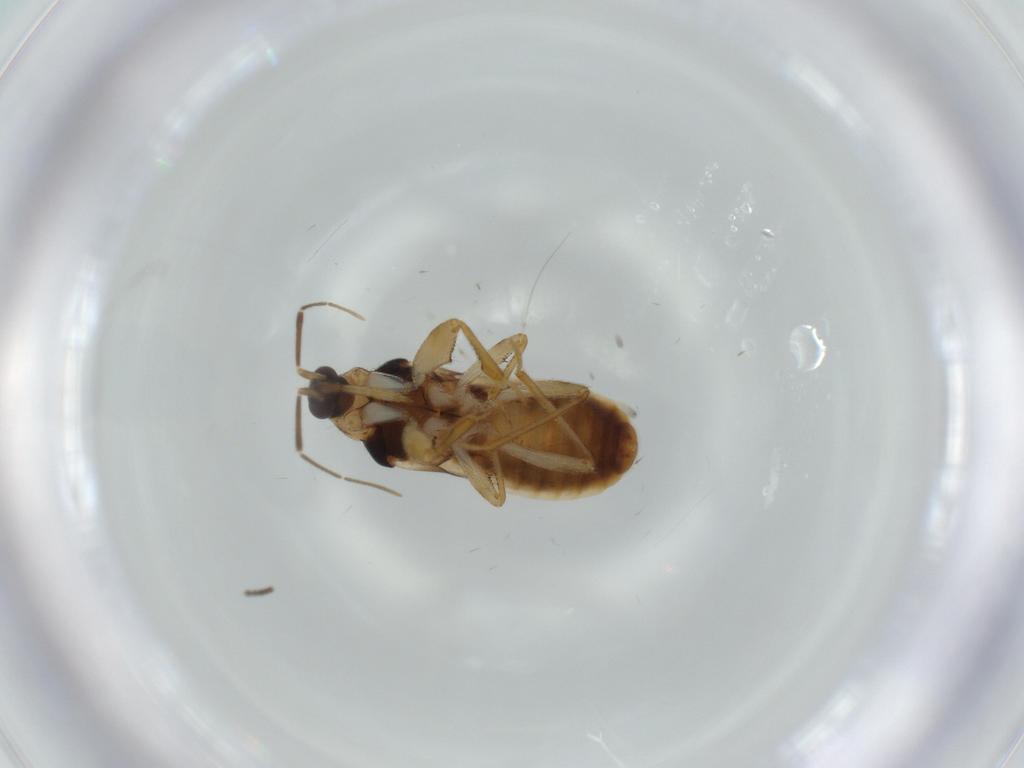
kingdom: Animalia
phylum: Arthropoda
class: Insecta
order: Hemiptera
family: Nabidae
